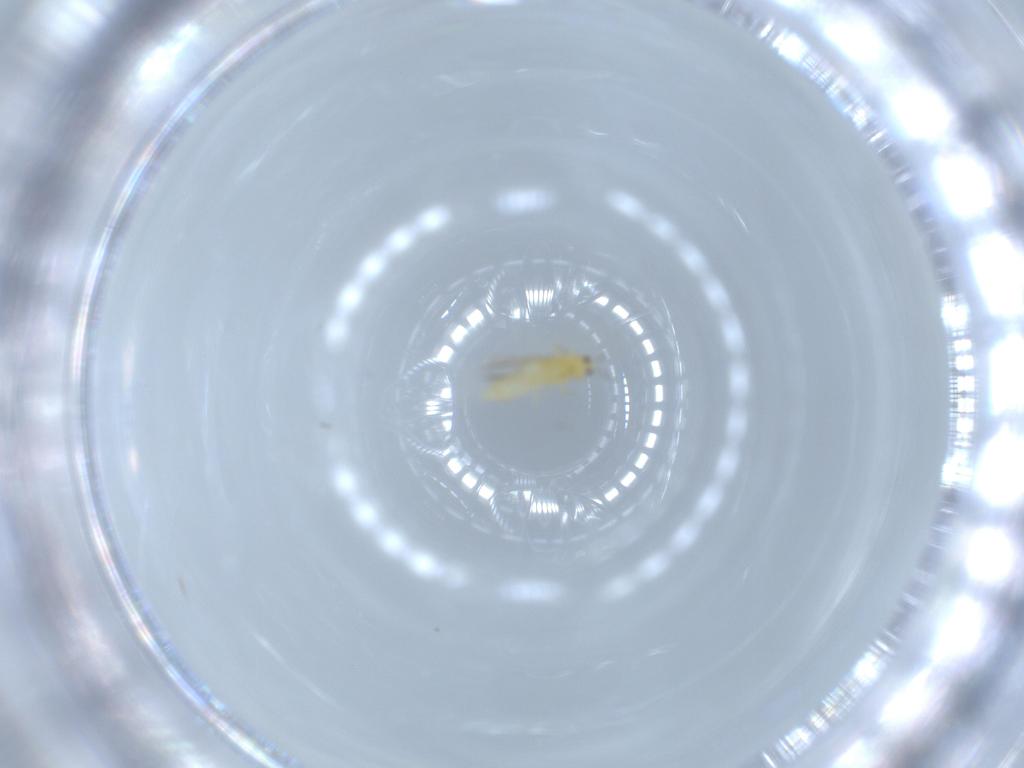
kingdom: Animalia
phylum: Arthropoda
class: Insecta
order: Thysanoptera
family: Thripidae
